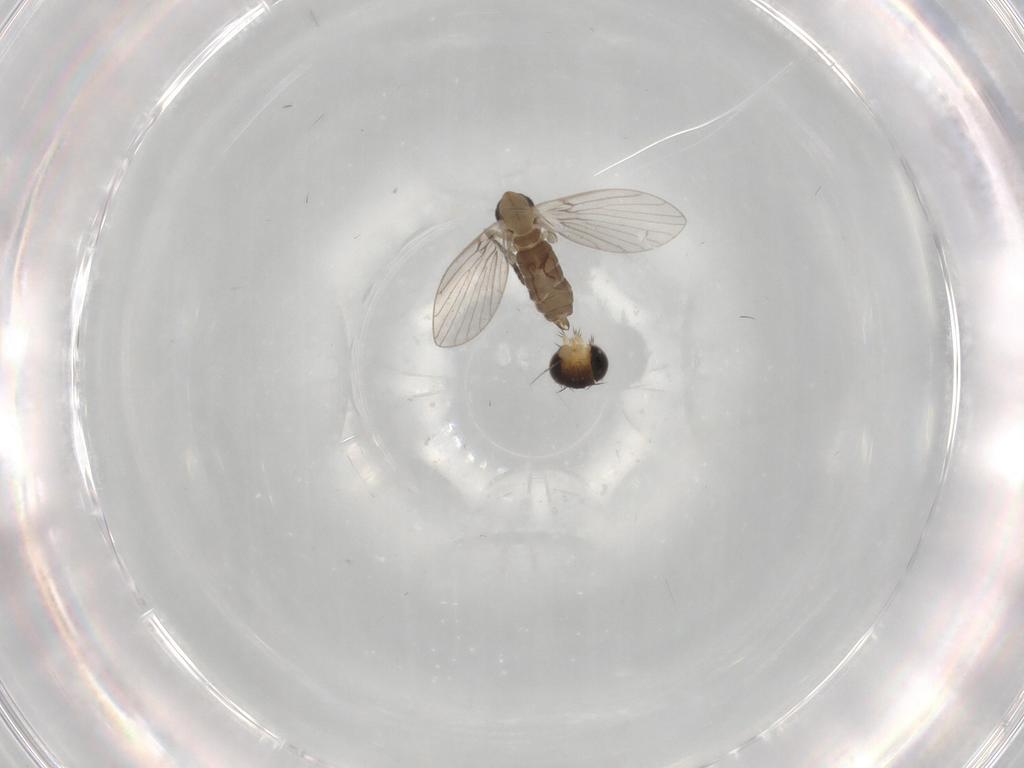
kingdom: Animalia
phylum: Arthropoda
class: Insecta
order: Diptera
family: Phoridae
